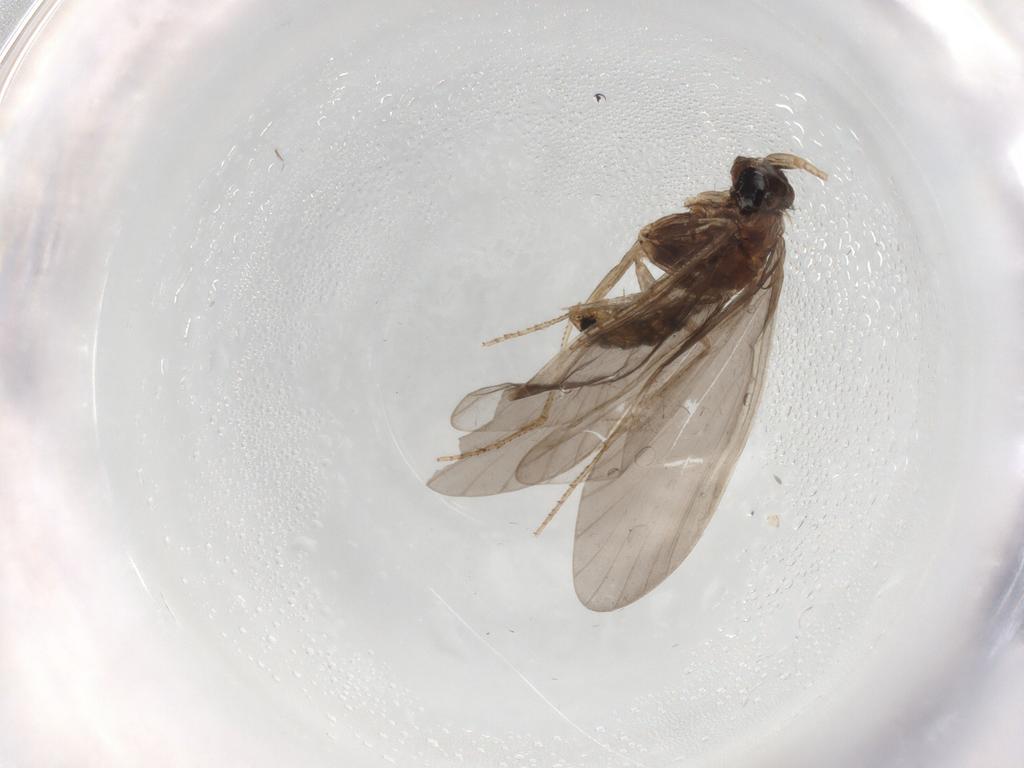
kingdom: Animalia
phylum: Arthropoda
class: Insecta
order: Trichoptera
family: Helicopsychidae
